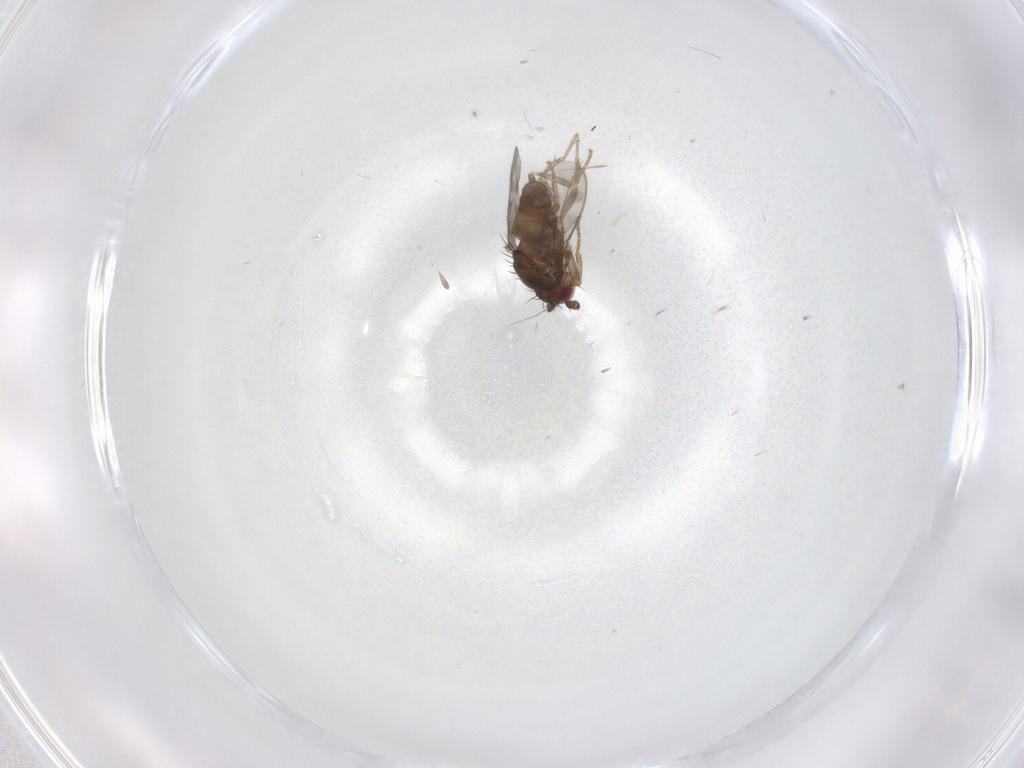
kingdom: Animalia
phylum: Arthropoda
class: Insecta
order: Diptera
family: Sphaeroceridae
